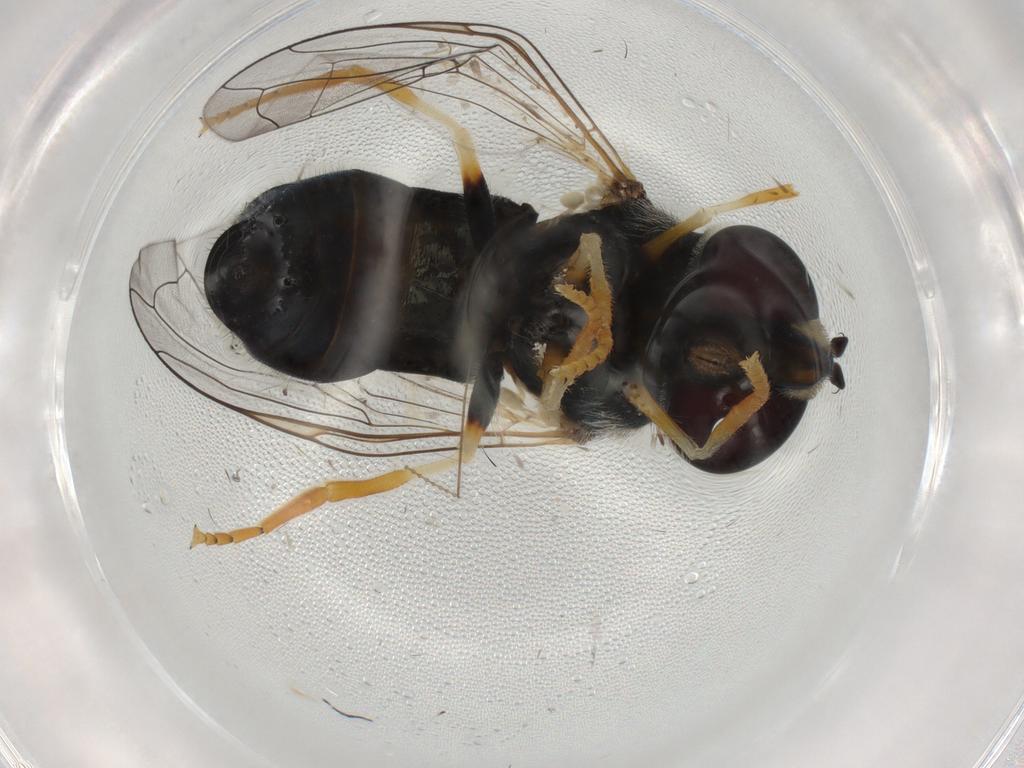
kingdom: Animalia
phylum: Arthropoda
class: Insecta
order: Diptera
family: Syrphidae
